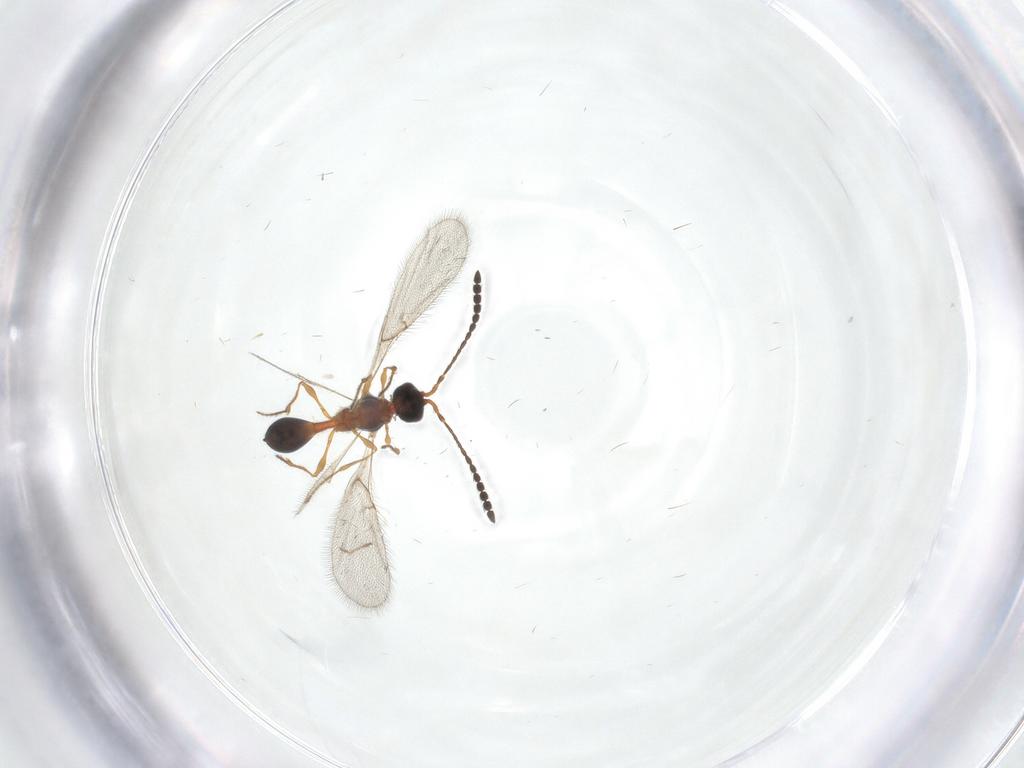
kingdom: Animalia
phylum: Arthropoda
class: Insecta
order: Hymenoptera
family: Diapriidae
